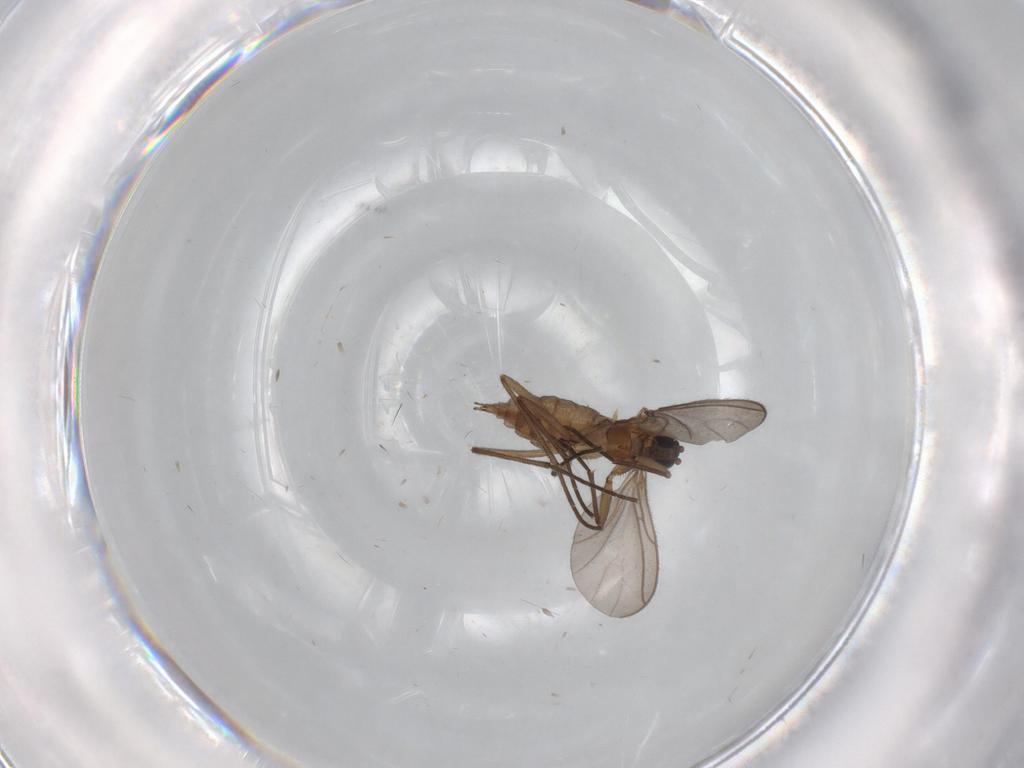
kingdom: Animalia
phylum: Arthropoda
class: Insecta
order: Diptera
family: Sciaridae
